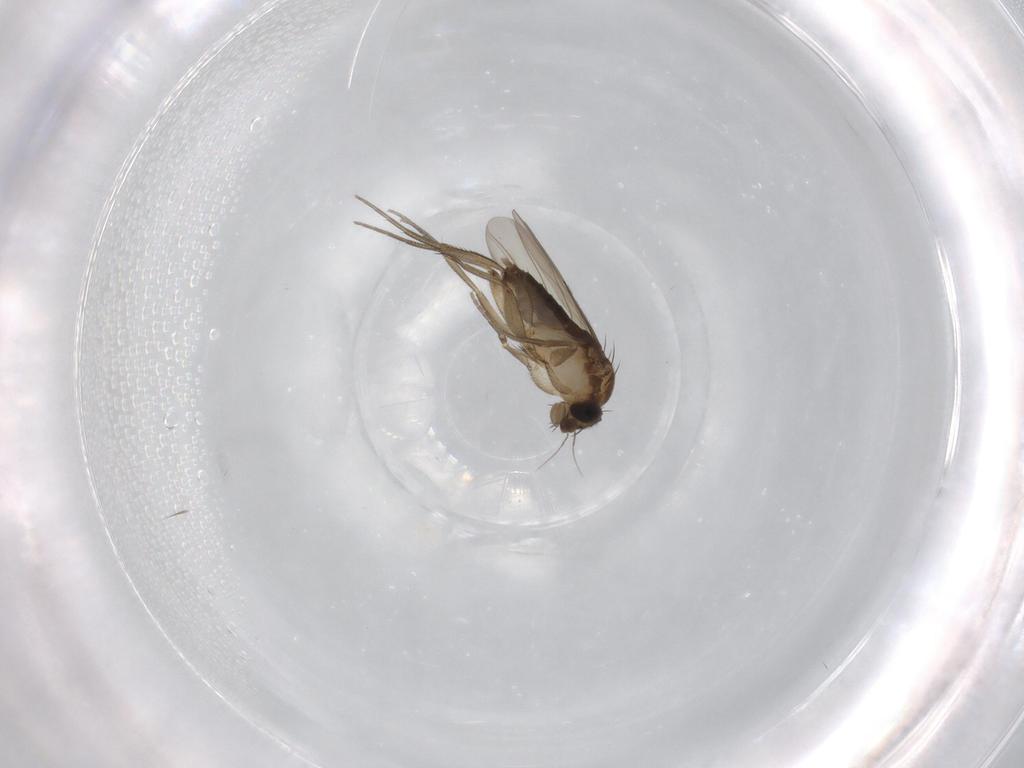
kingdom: Animalia
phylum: Arthropoda
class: Insecta
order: Diptera
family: Phoridae
